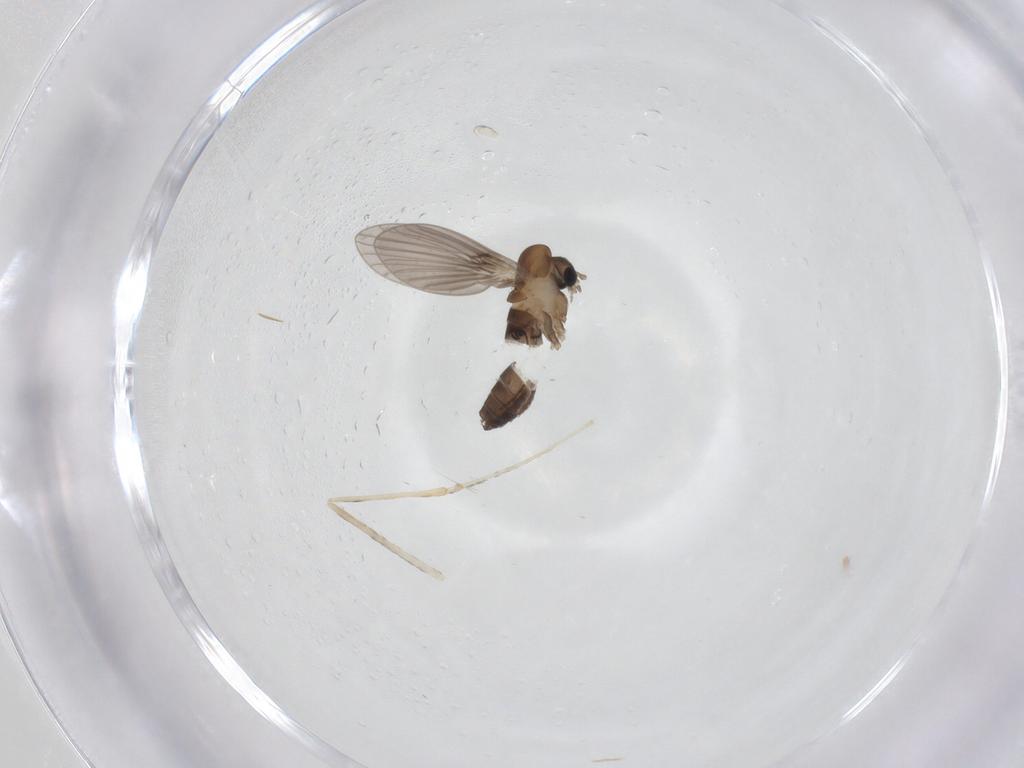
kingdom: Animalia
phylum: Arthropoda
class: Insecta
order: Diptera
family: Cecidomyiidae
